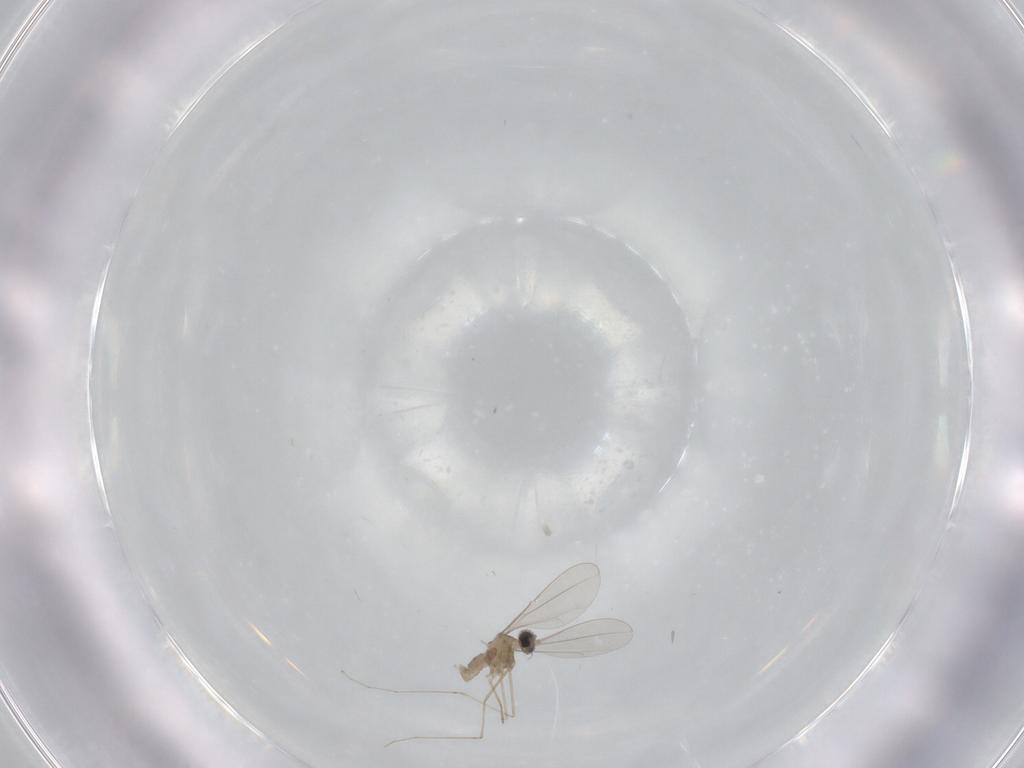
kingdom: Animalia
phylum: Arthropoda
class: Insecta
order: Diptera
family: Cecidomyiidae
